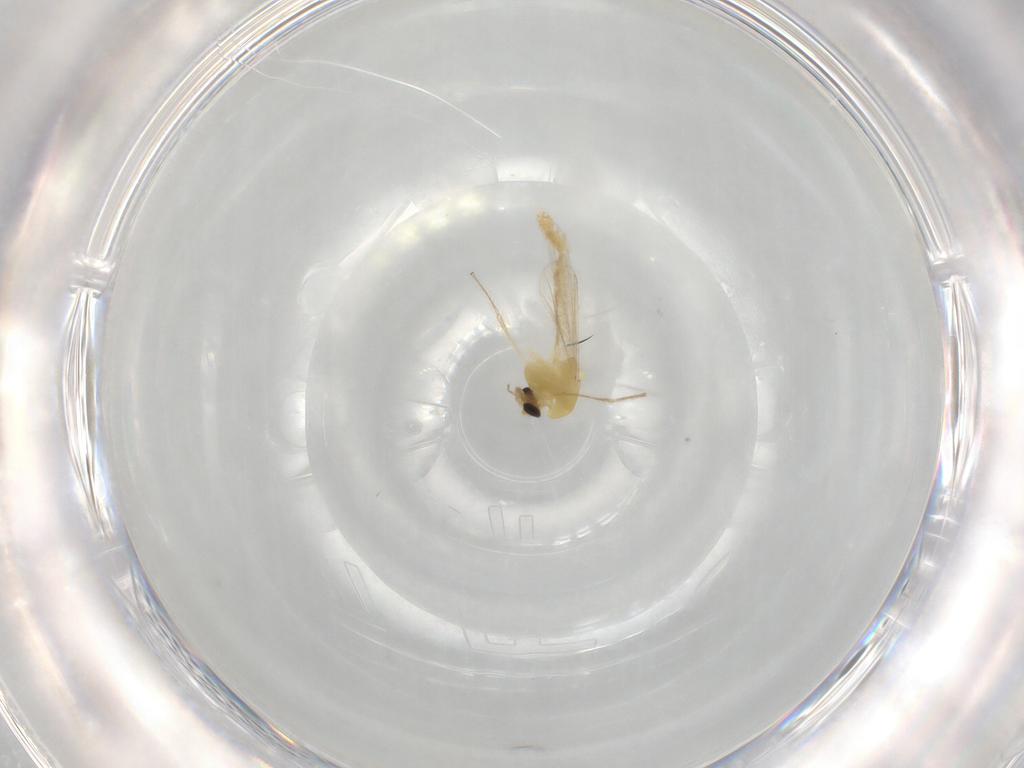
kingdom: Animalia
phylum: Arthropoda
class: Insecta
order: Diptera
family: Chironomidae
